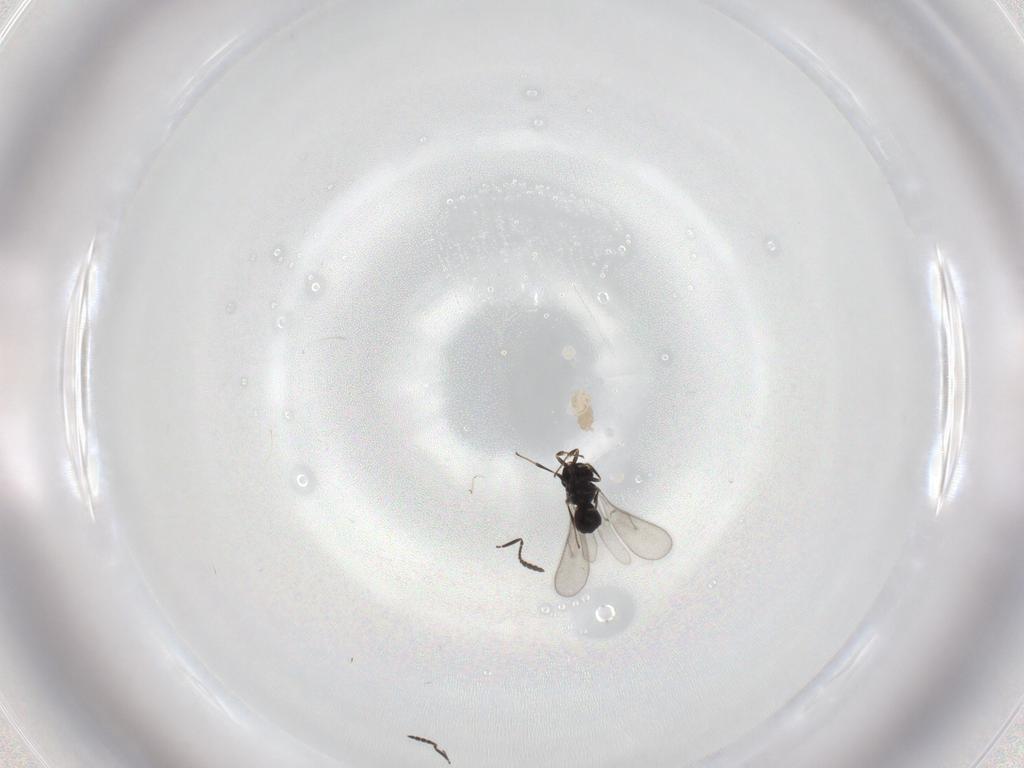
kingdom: Animalia
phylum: Arthropoda
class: Insecta
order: Hymenoptera
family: Scelionidae
